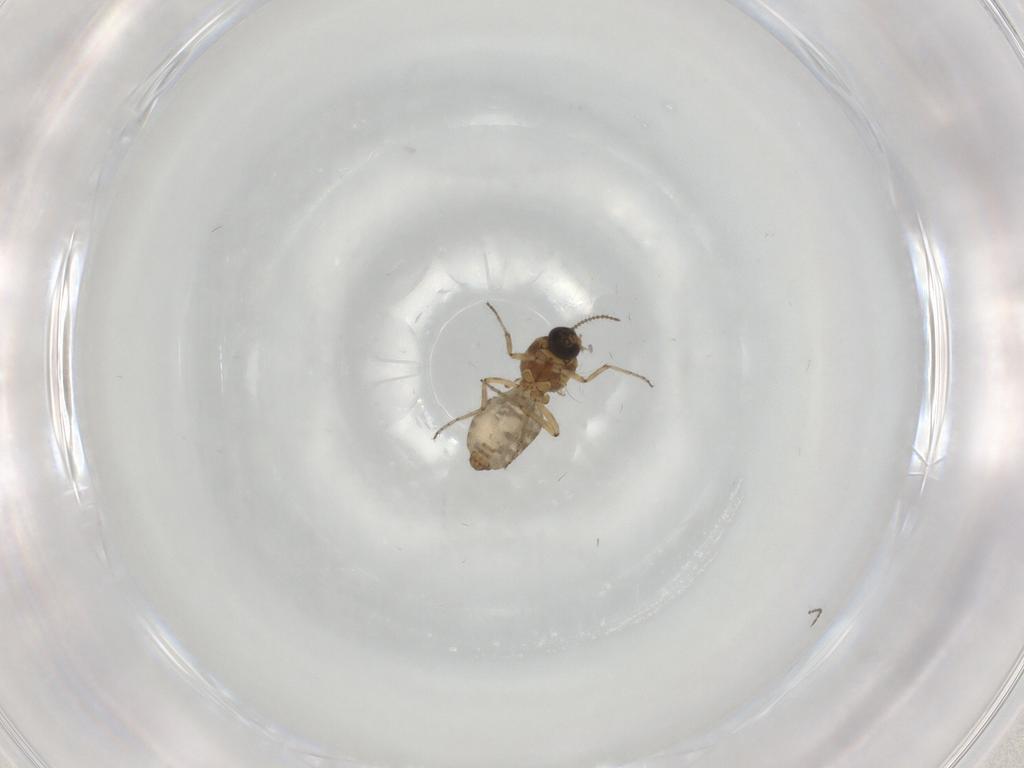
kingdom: Animalia
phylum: Arthropoda
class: Insecta
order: Diptera
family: Ceratopogonidae
